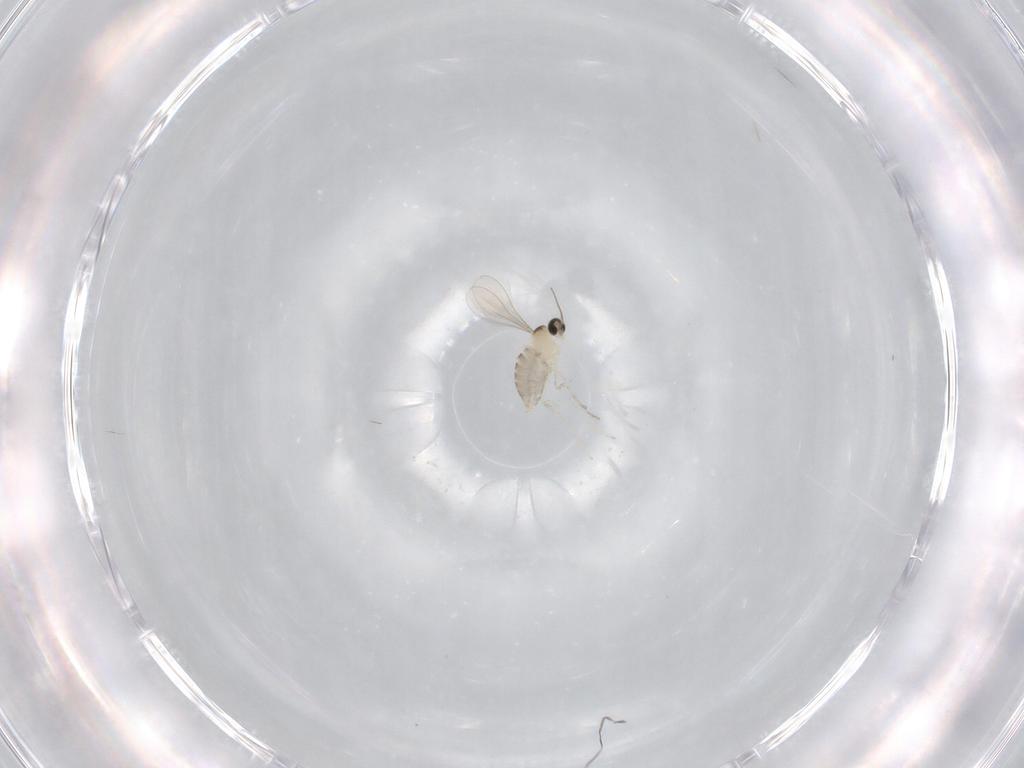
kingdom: Animalia
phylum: Arthropoda
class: Insecta
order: Diptera
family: Cecidomyiidae
